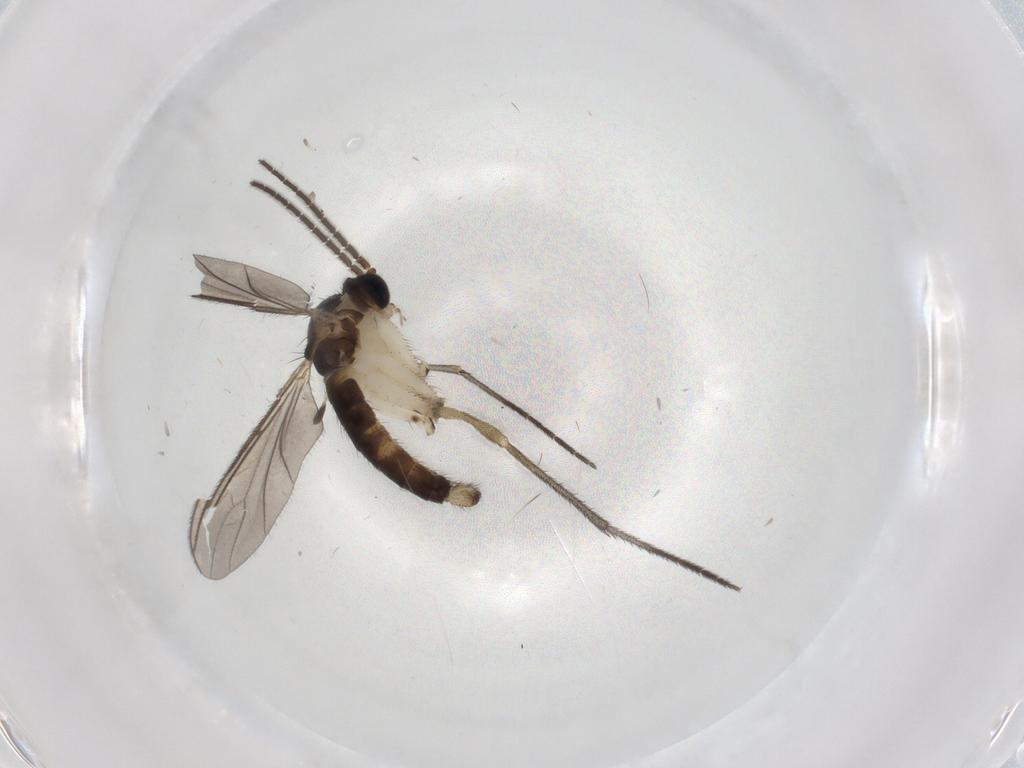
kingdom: Animalia
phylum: Arthropoda
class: Insecta
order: Diptera
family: Sciaridae
